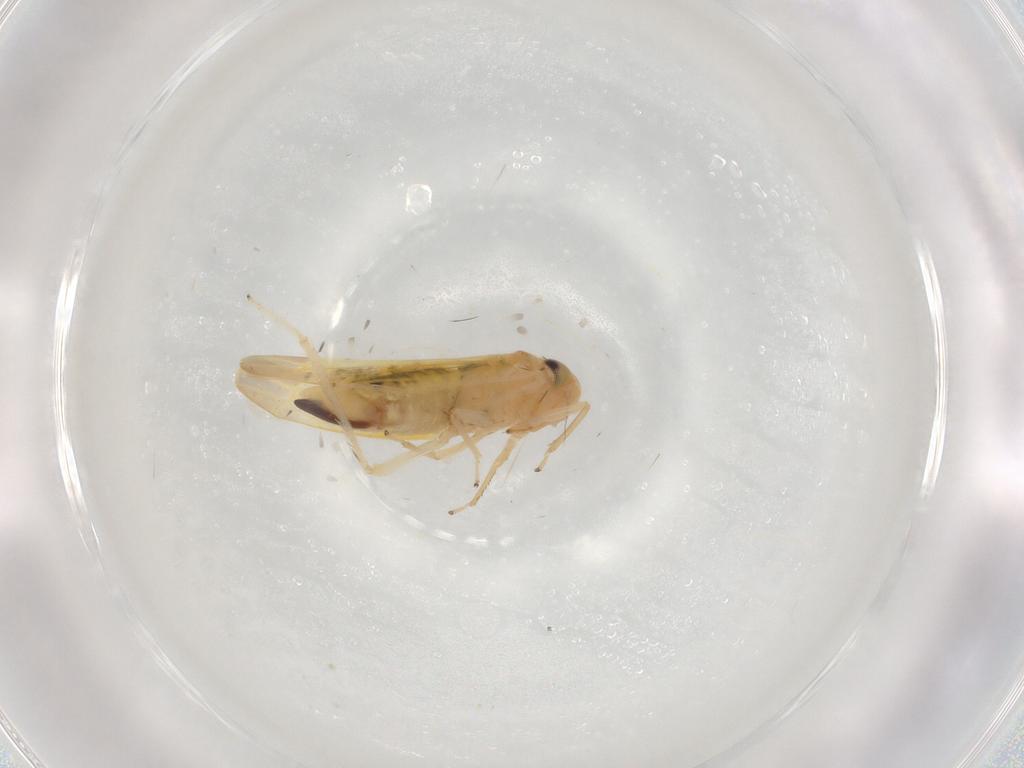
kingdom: Animalia
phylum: Arthropoda
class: Insecta
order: Hemiptera
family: Cicadellidae
